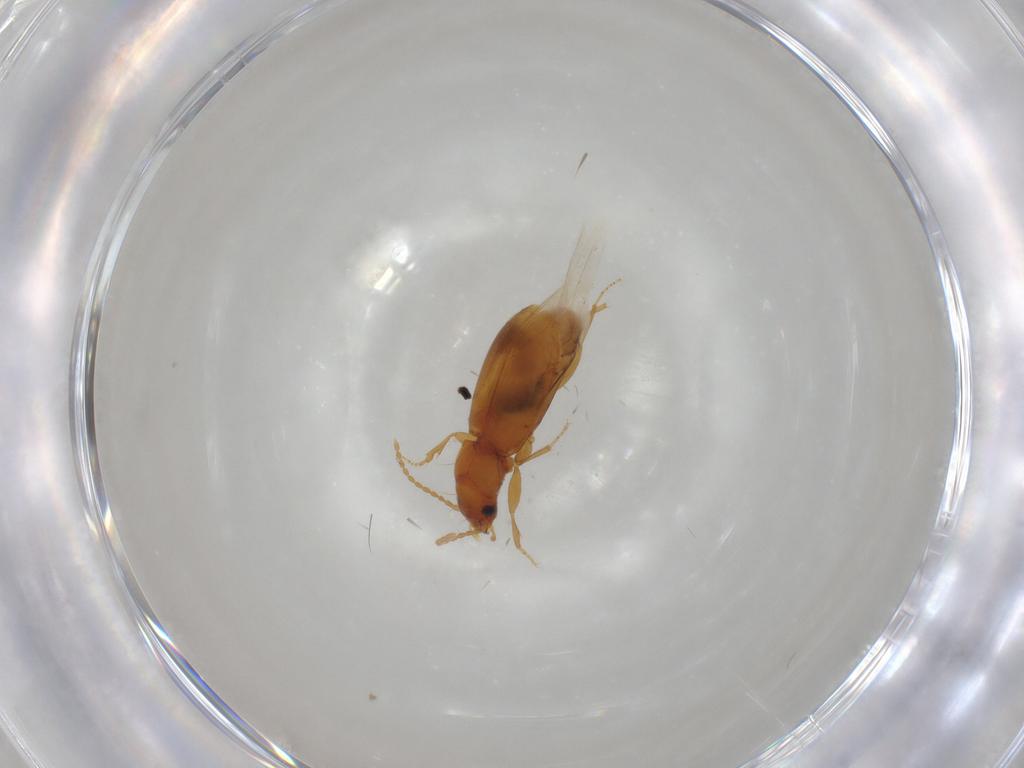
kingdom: Animalia
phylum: Arthropoda
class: Insecta
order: Coleoptera
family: Carabidae
